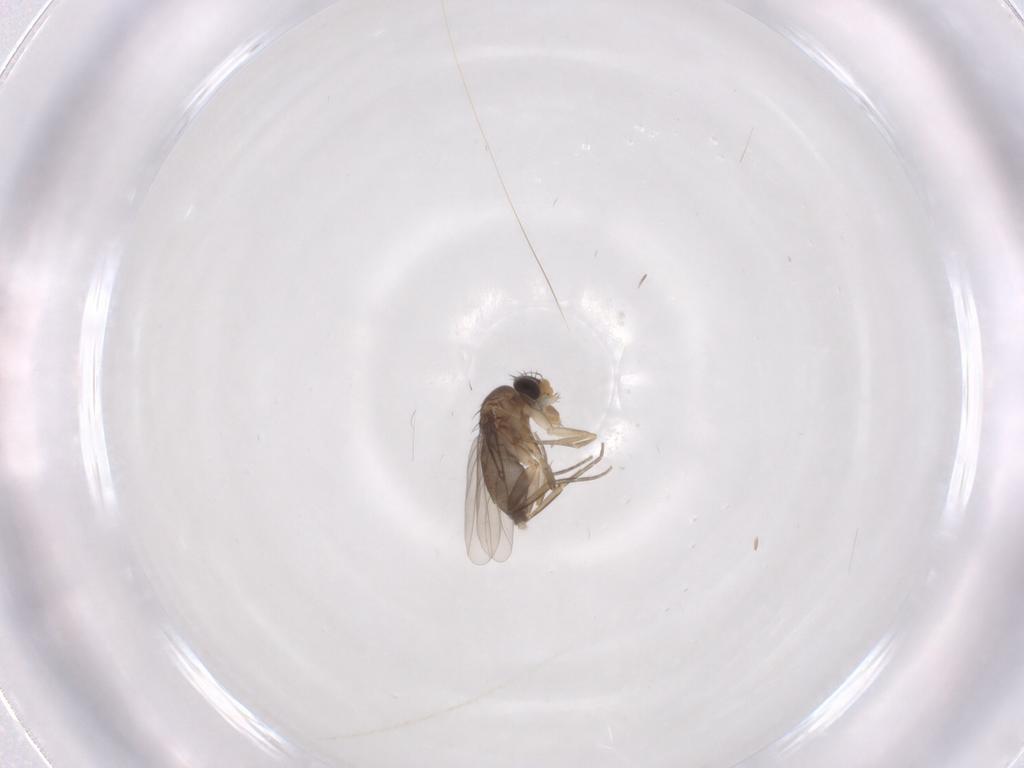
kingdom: Animalia
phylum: Arthropoda
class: Insecta
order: Diptera
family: Phoridae
